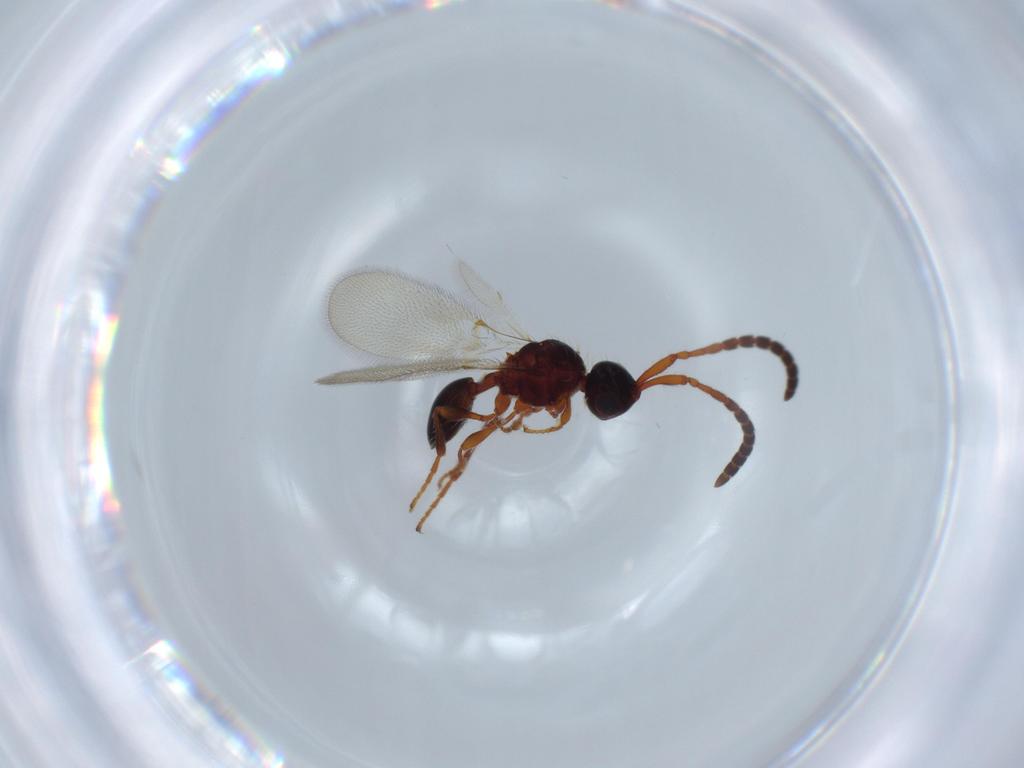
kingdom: Animalia
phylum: Arthropoda
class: Insecta
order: Hymenoptera
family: Diapriidae
